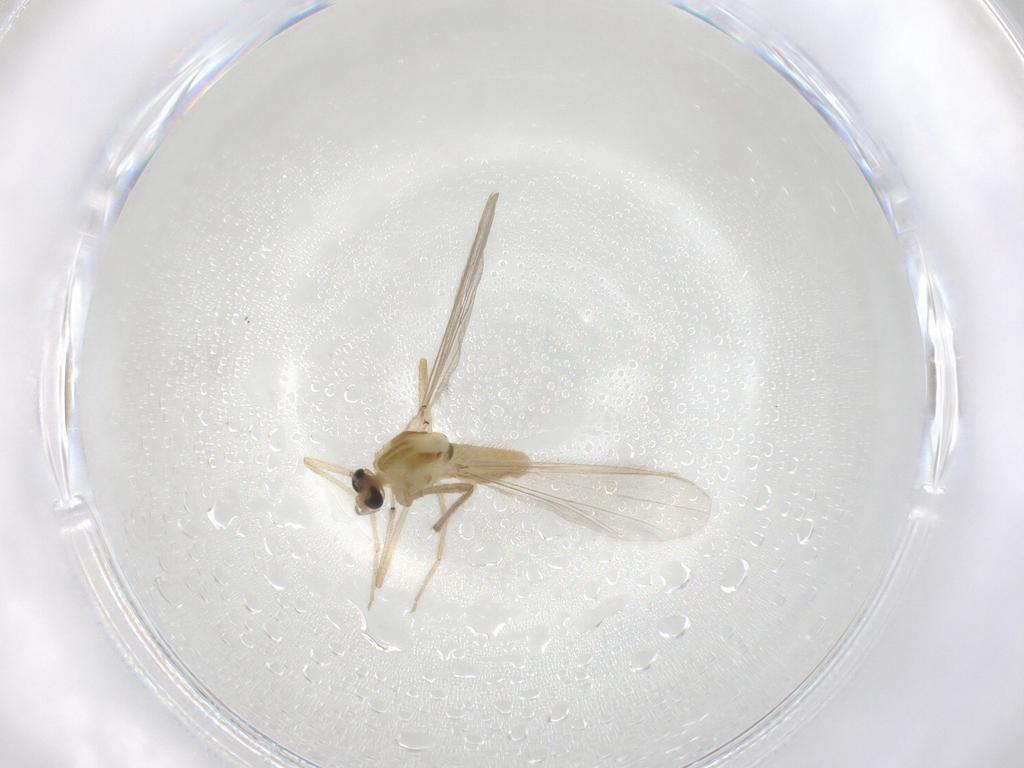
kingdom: Animalia
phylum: Arthropoda
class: Insecta
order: Diptera
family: Chironomidae
